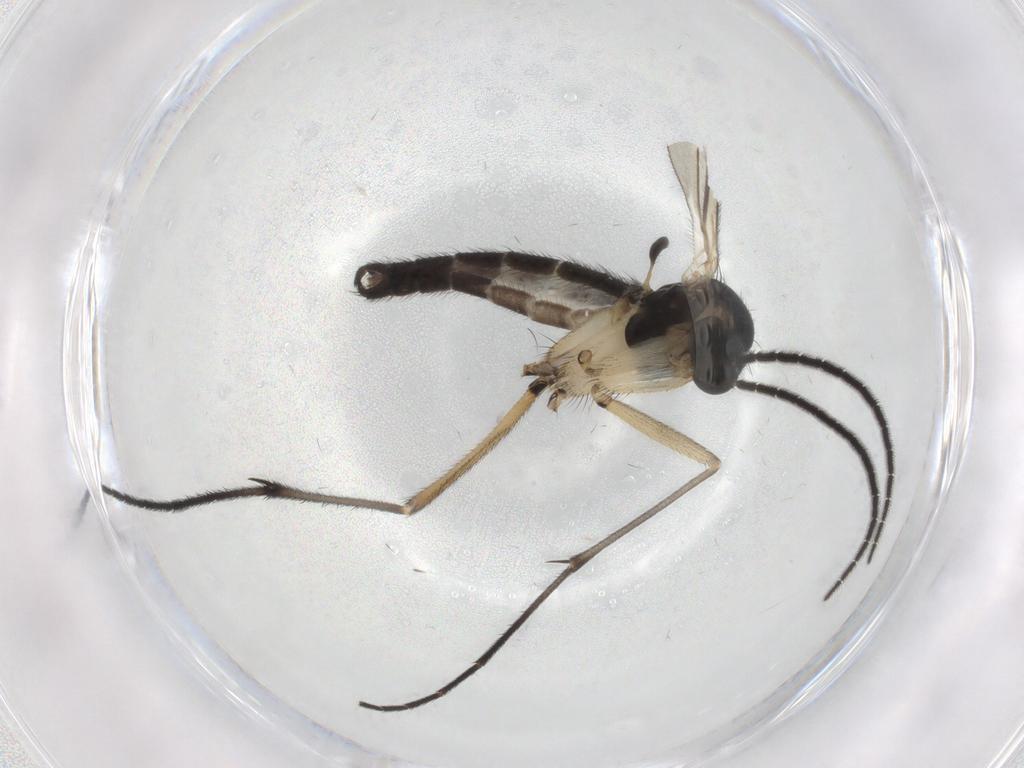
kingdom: Animalia
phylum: Arthropoda
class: Insecta
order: Diptera
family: Sciaridae
